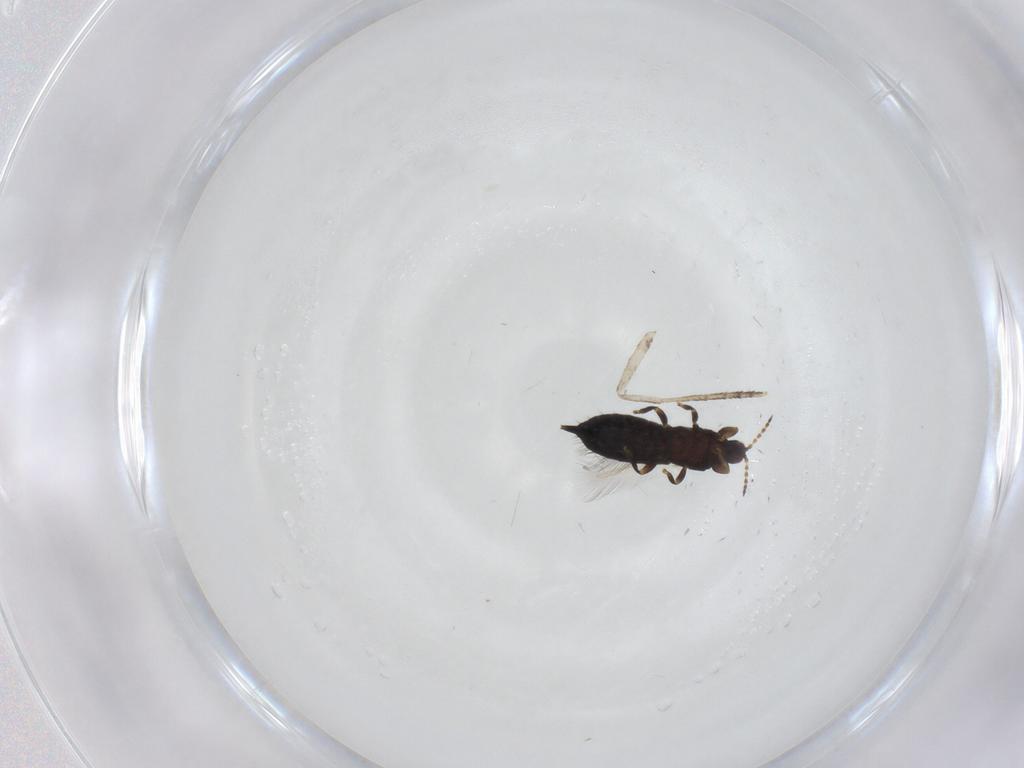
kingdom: Animalia
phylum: Arthropoda
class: Insecta
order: Thysanoptera
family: Phlaeothripidae
